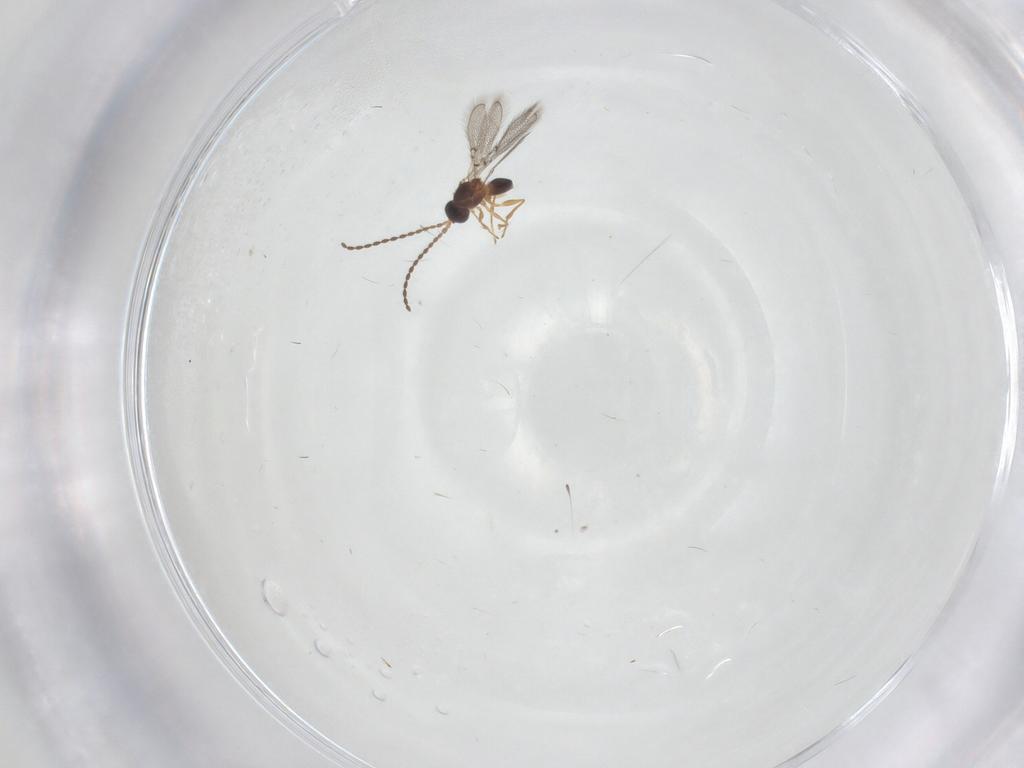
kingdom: Animalia
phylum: Arthropoda
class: Insecta
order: Hymenoptera
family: Figitidae
